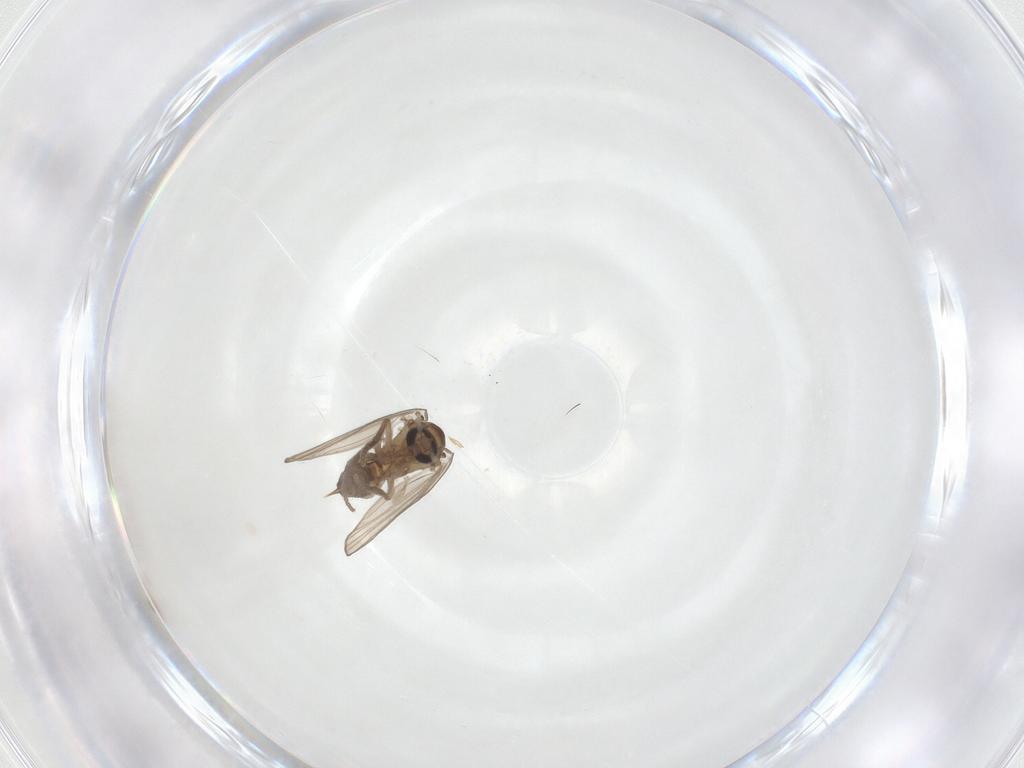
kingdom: Animalia
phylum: Arthropoda
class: Insecta
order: Diptera
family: Psychodidae
